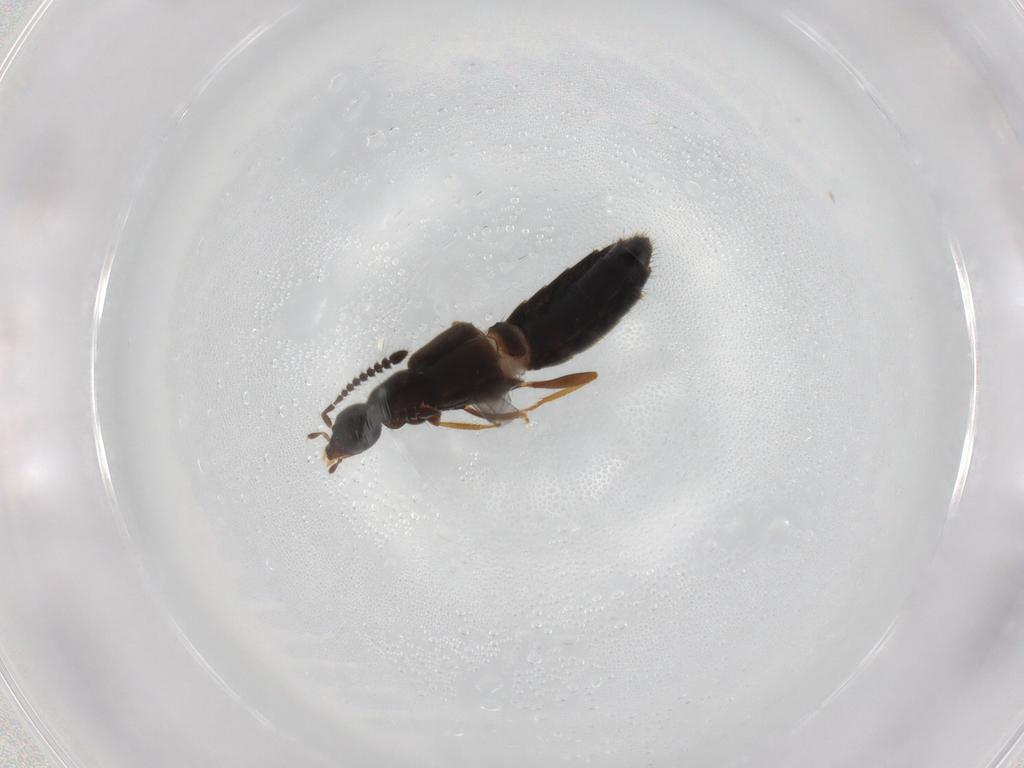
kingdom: Animalia
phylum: Arthropoda
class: Insecta
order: Coleoptera
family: Staphylinidae
